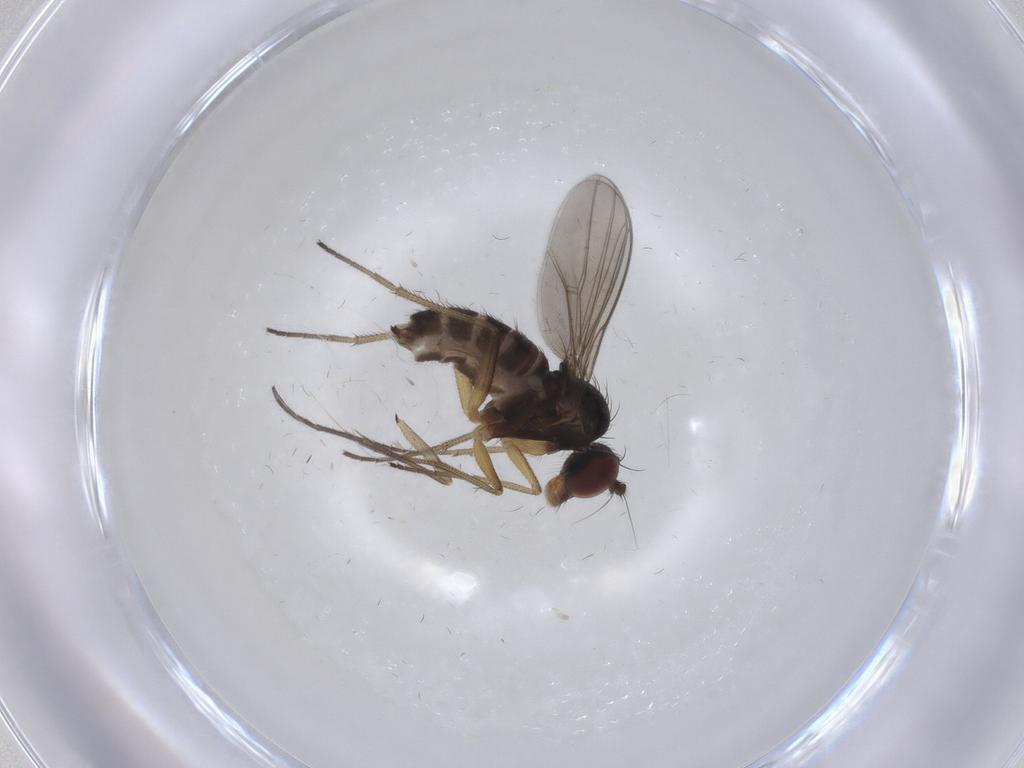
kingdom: Animalia
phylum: Arthropoda
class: Insecta
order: Diptera
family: Dolichopodidae
